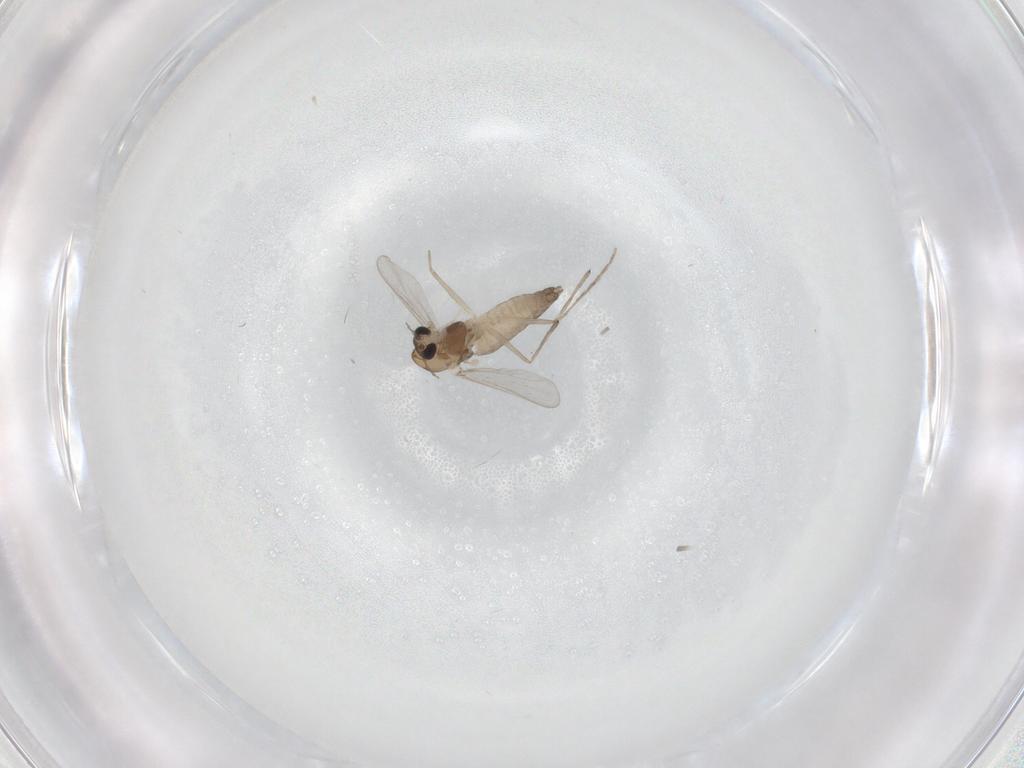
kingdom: Animalia
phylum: Arthropoda
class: Insecta
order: Diptera
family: Chironomidae
